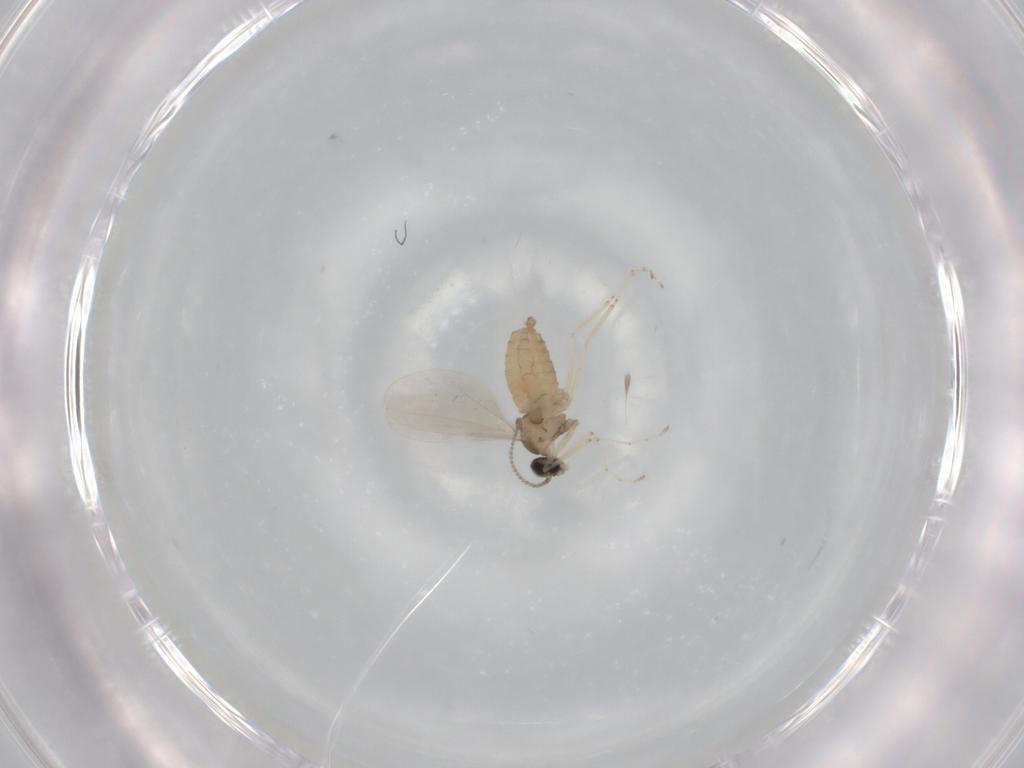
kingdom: Animalia
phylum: Arthropoda
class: Insecta
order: Diptera
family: Cecidomyiidae
